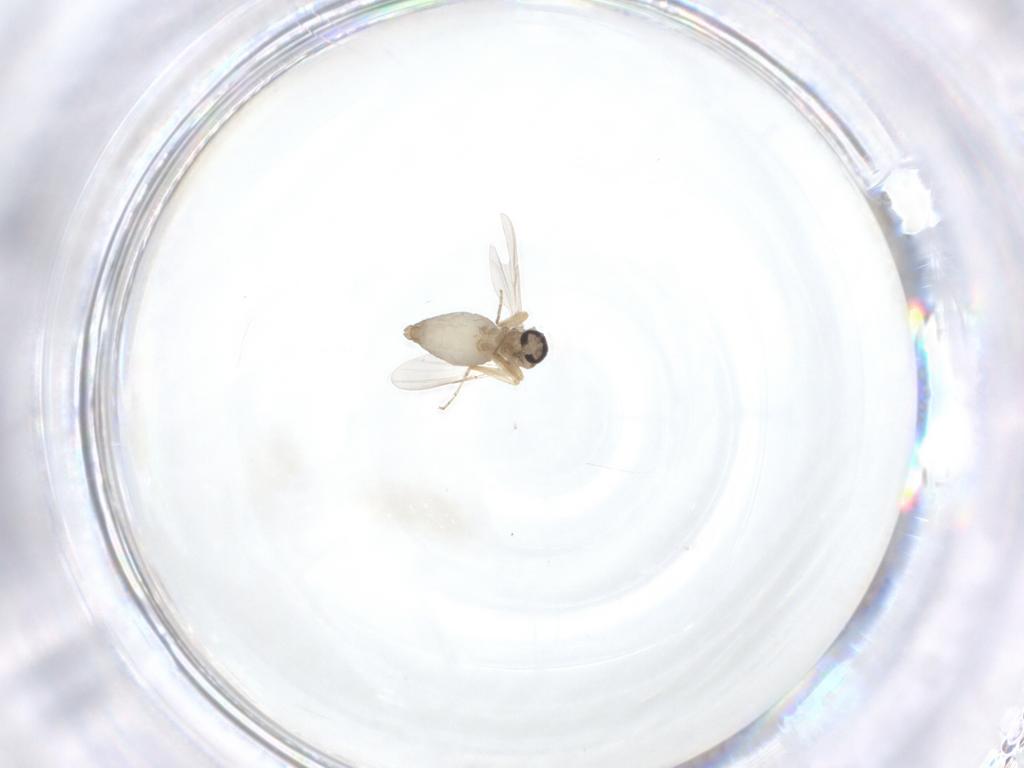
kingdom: Animalia
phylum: Arthropoda
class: Insecta
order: Diptera
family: Ceratopogonidae
